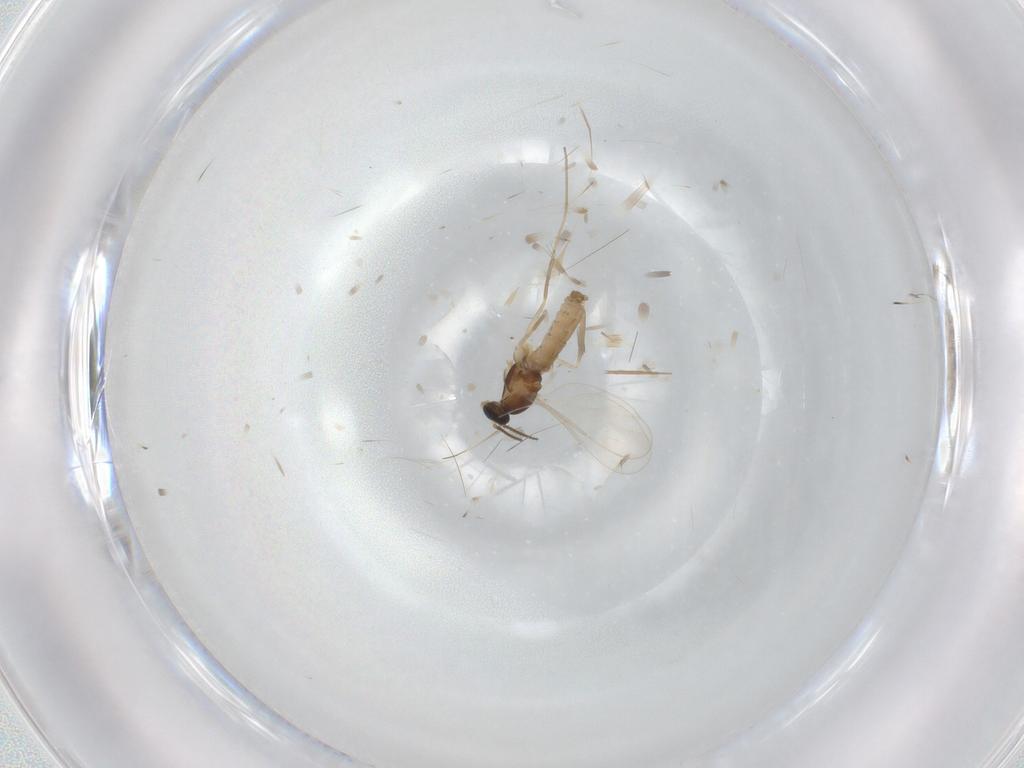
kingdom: Animalia
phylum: Arthropoda
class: Insecta
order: Diptera
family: Cecidomyiidae
